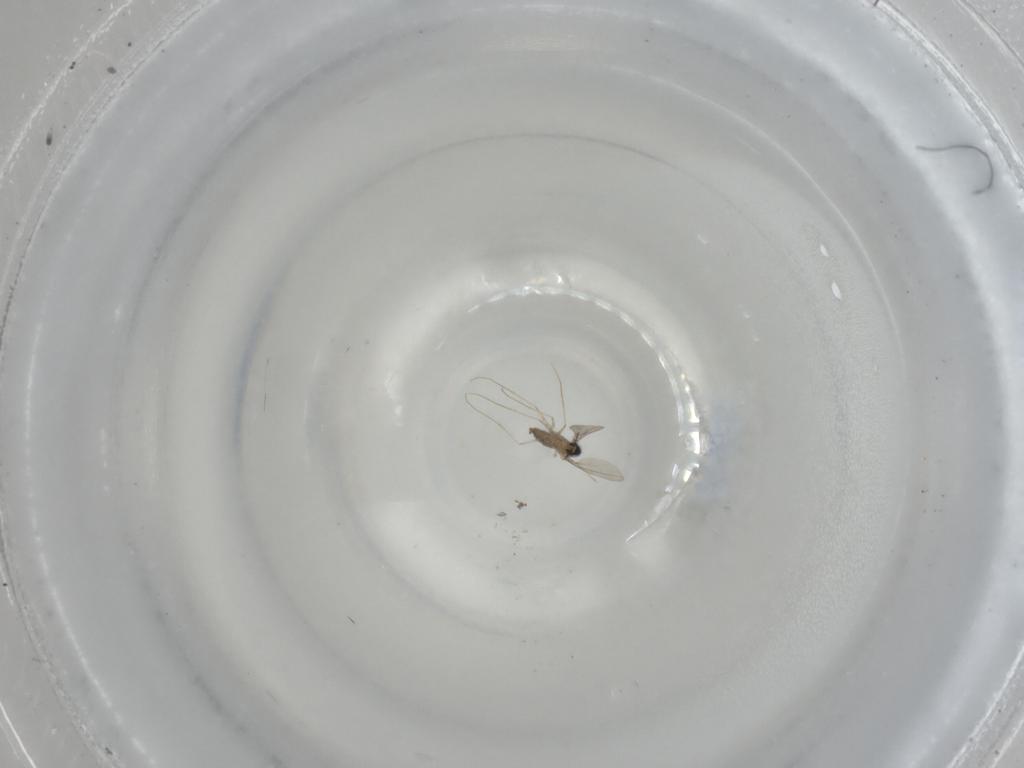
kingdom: Animalia
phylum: Arthropoda
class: Insecta
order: Diptera
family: Cecidomyiidae
